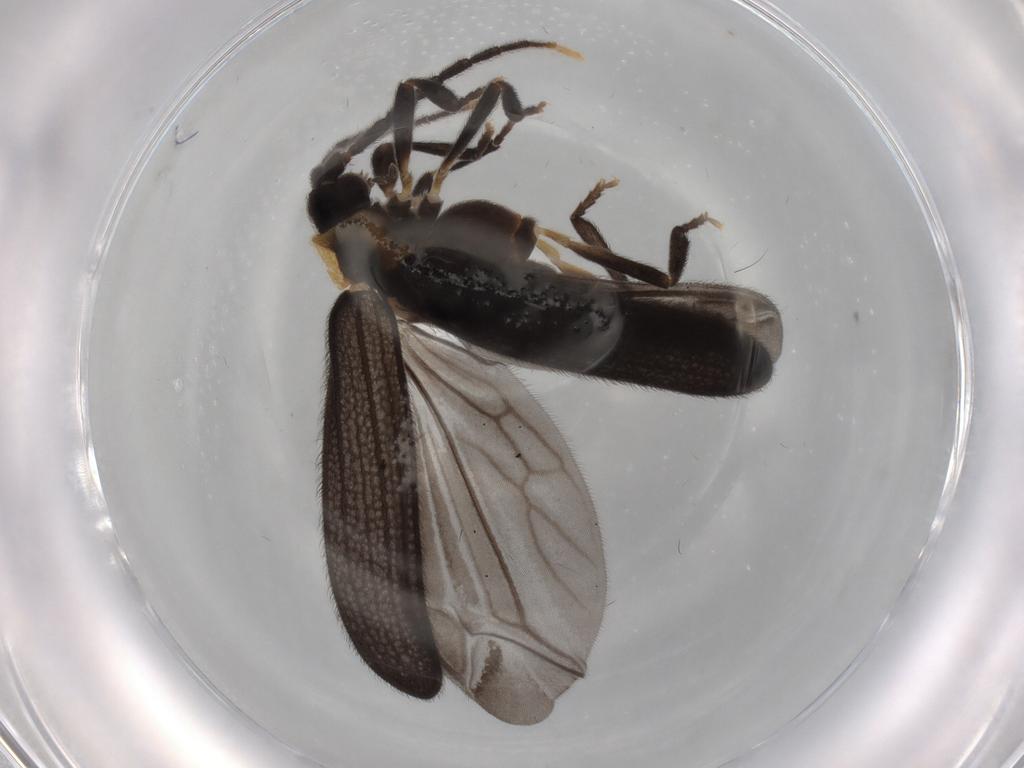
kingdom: Animalia
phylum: Arthropoda
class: Insecta
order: Coleoptera
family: Lycidae
